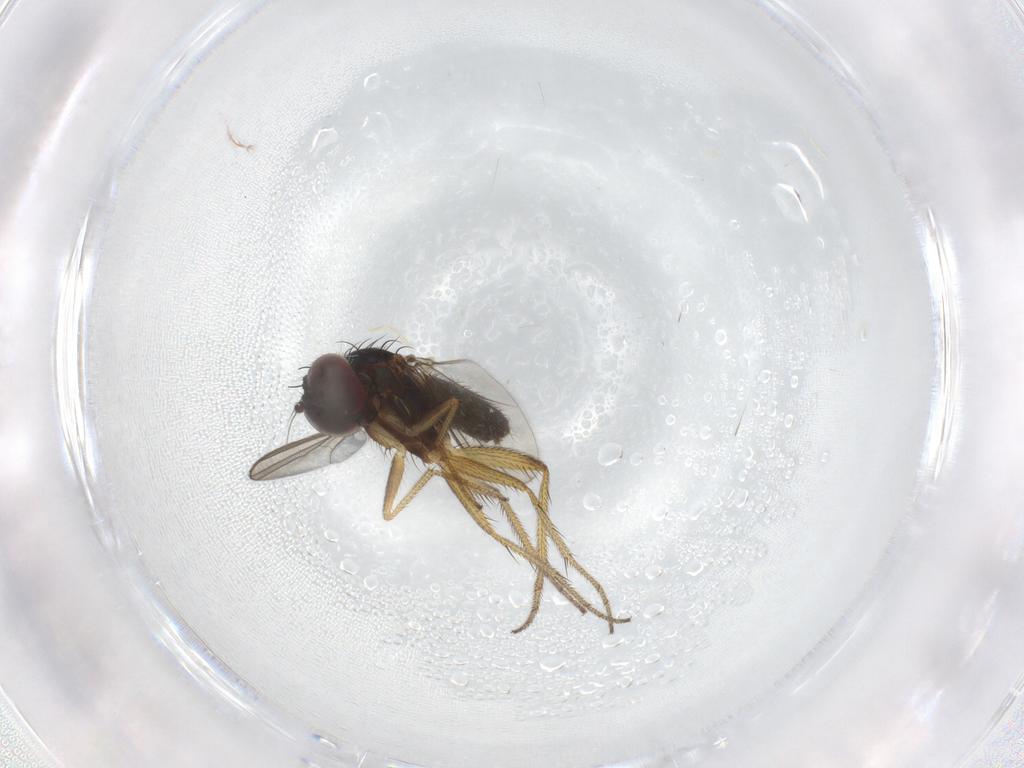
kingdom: Animalia
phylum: Arthropoda
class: Insecta
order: Diptera
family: Dolichopodidae
